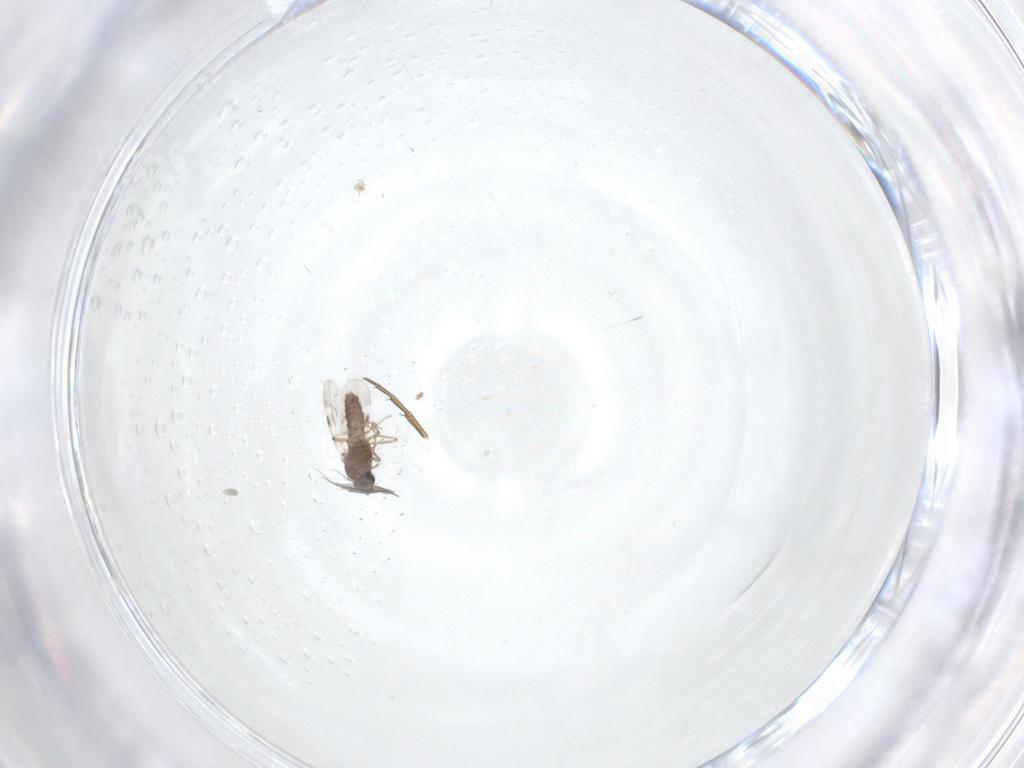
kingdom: Animalia
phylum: Arthropoda
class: Insecta
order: Diptera
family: Phoridae
